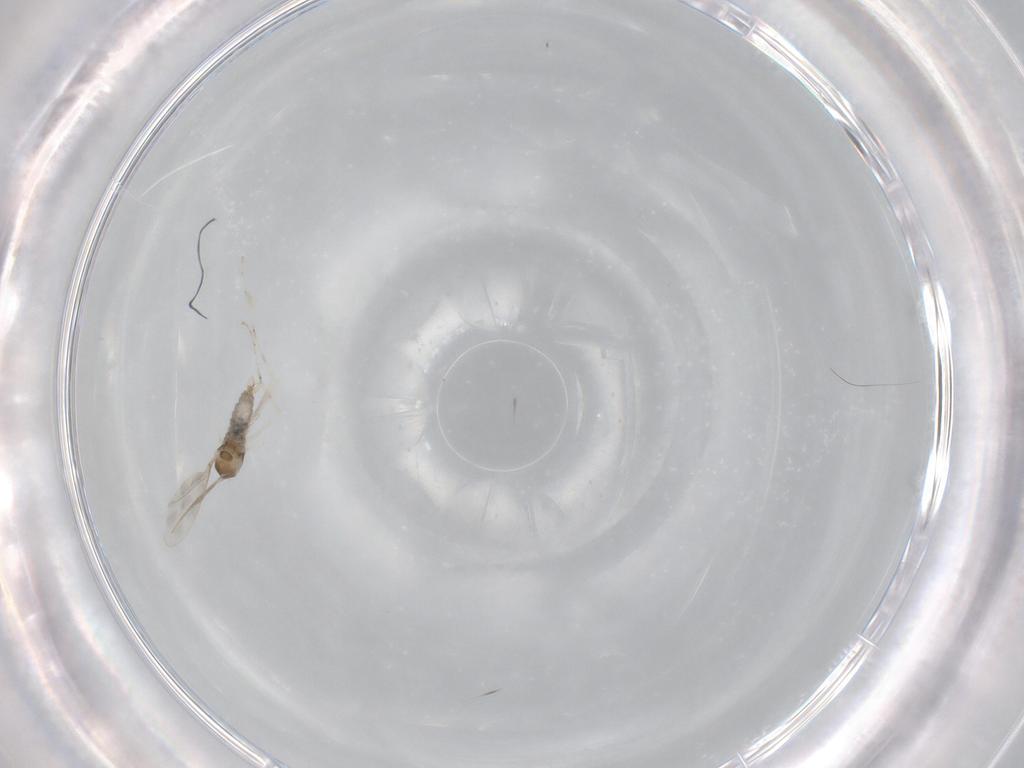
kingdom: Animalia
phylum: Arthropoda
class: Insecta
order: Diptera
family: Cecidomyiidae
